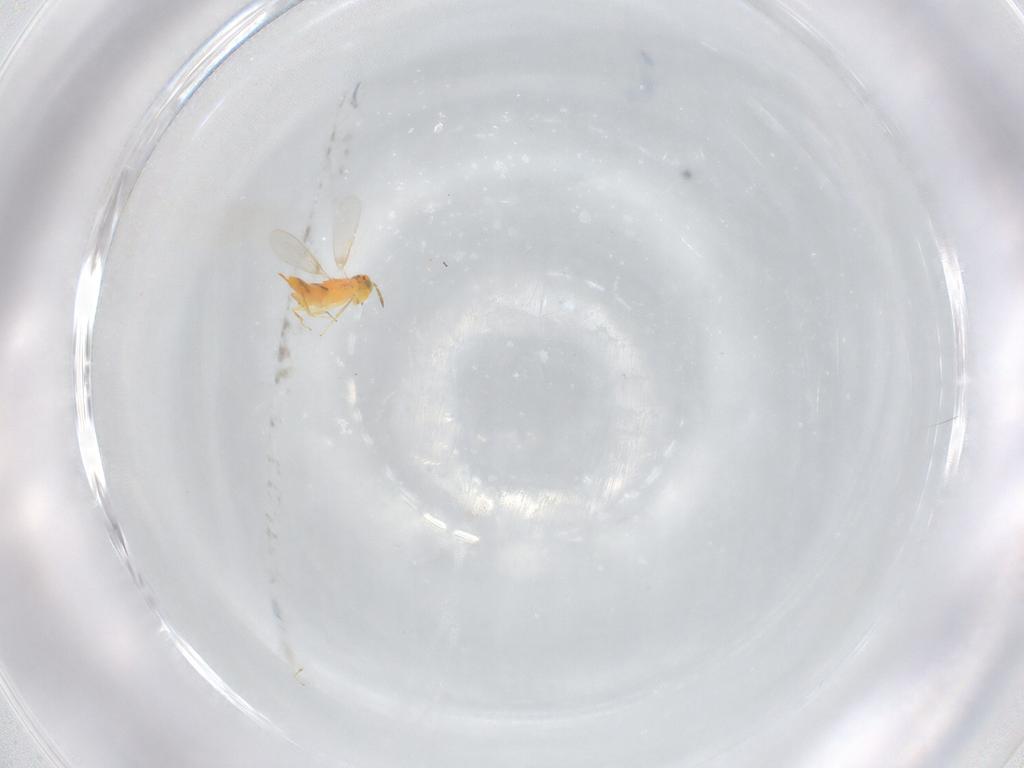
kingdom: Animalia
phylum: Arthropoda
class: Insecta
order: Hymenoptera
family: Aphelinidae
